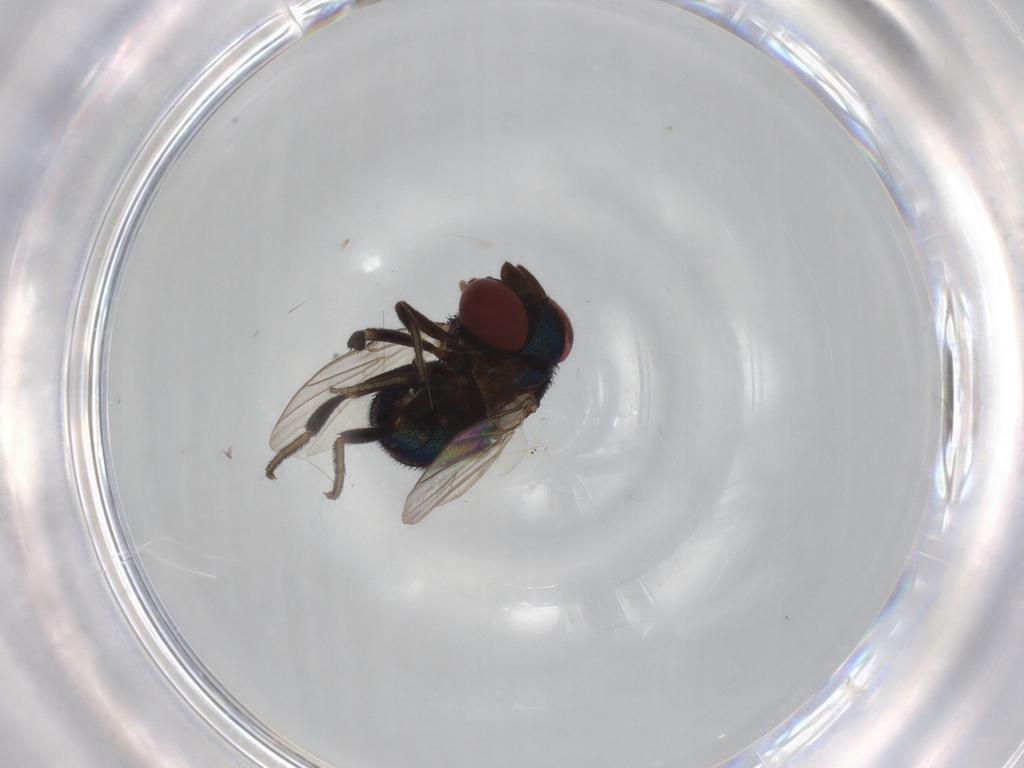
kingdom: Animalia
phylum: Arthropoda
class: Insecta
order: Diptera
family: Cryptochetidae
